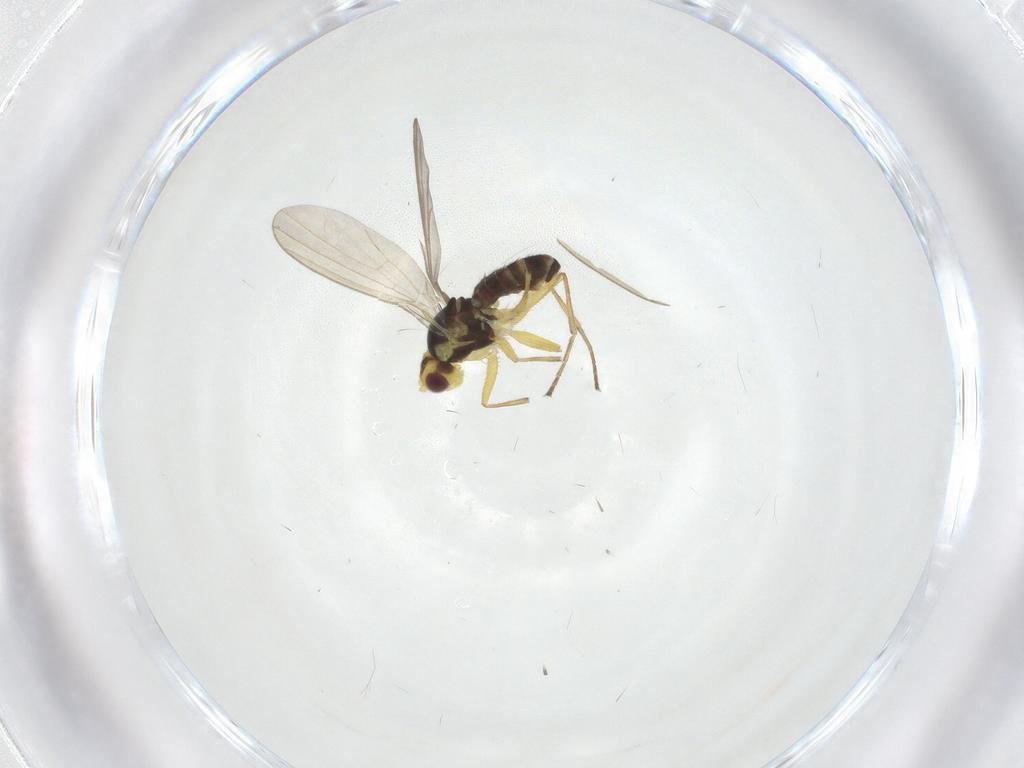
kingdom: Animalia
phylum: Arthropoda
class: Insecta
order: Diptera
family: Agromyzidae
